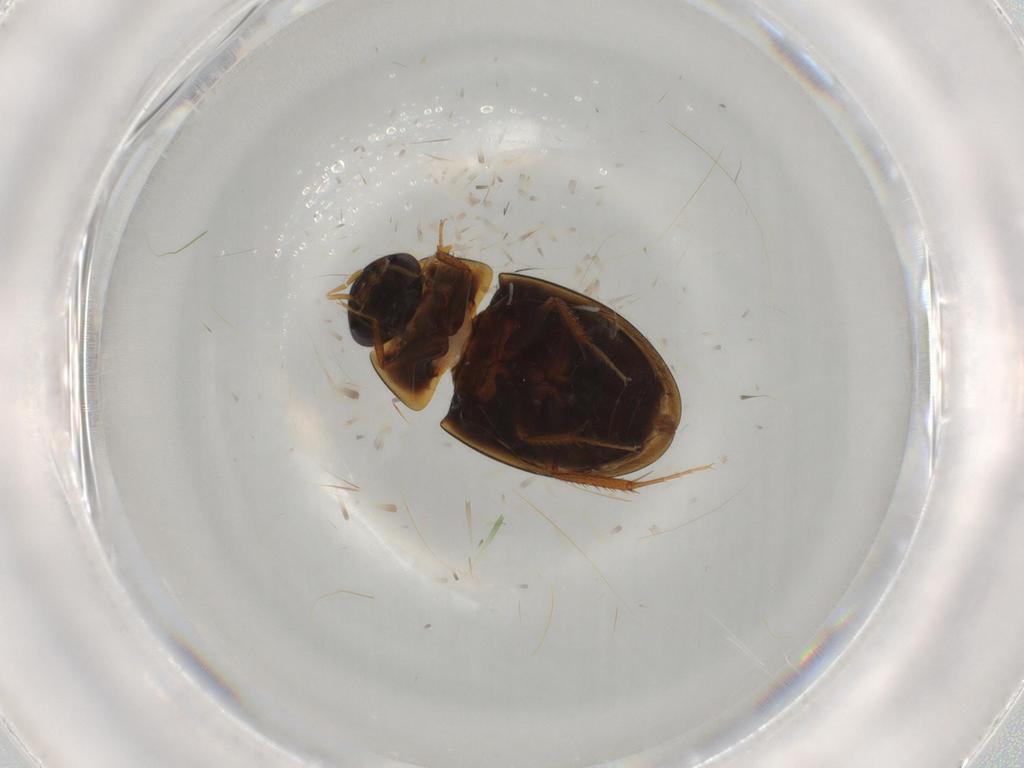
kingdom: Animalia
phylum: Arthropoda
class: Insecta
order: Coleoptera
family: Hydrophilidae
